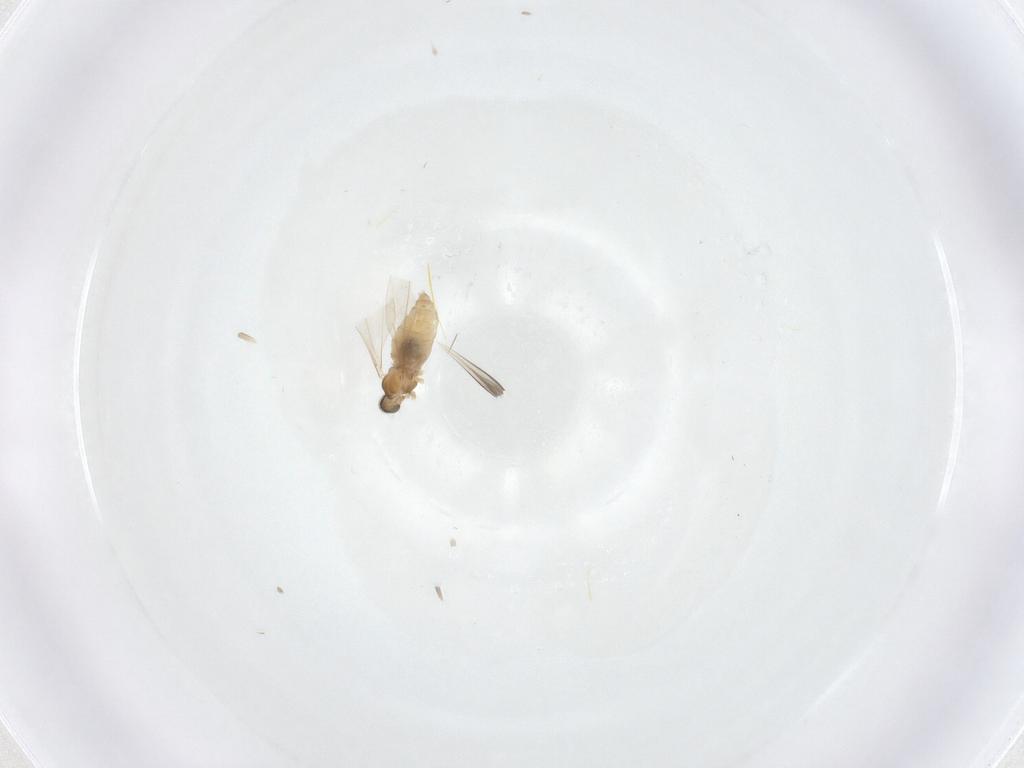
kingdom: Animalia
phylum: Arthropoda
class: Insecta
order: Diptera
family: Cecidomyiidae
